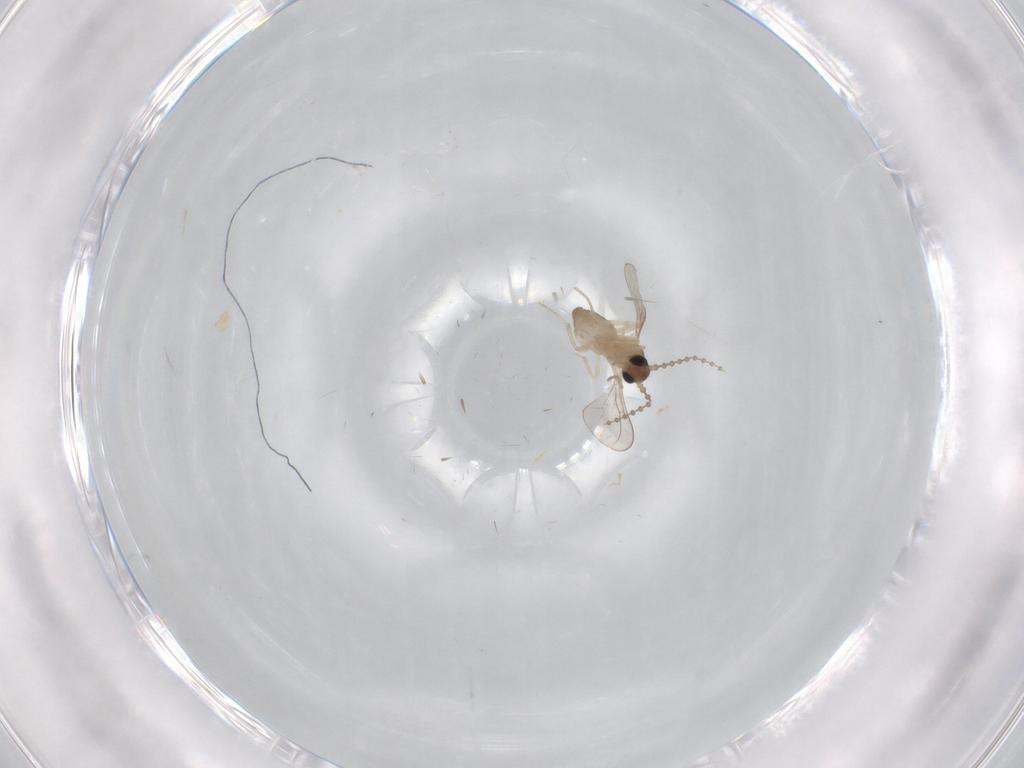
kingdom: Animalia
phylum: Arthropoda
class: Insecta
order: Diptera
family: Cecidomyiidae
